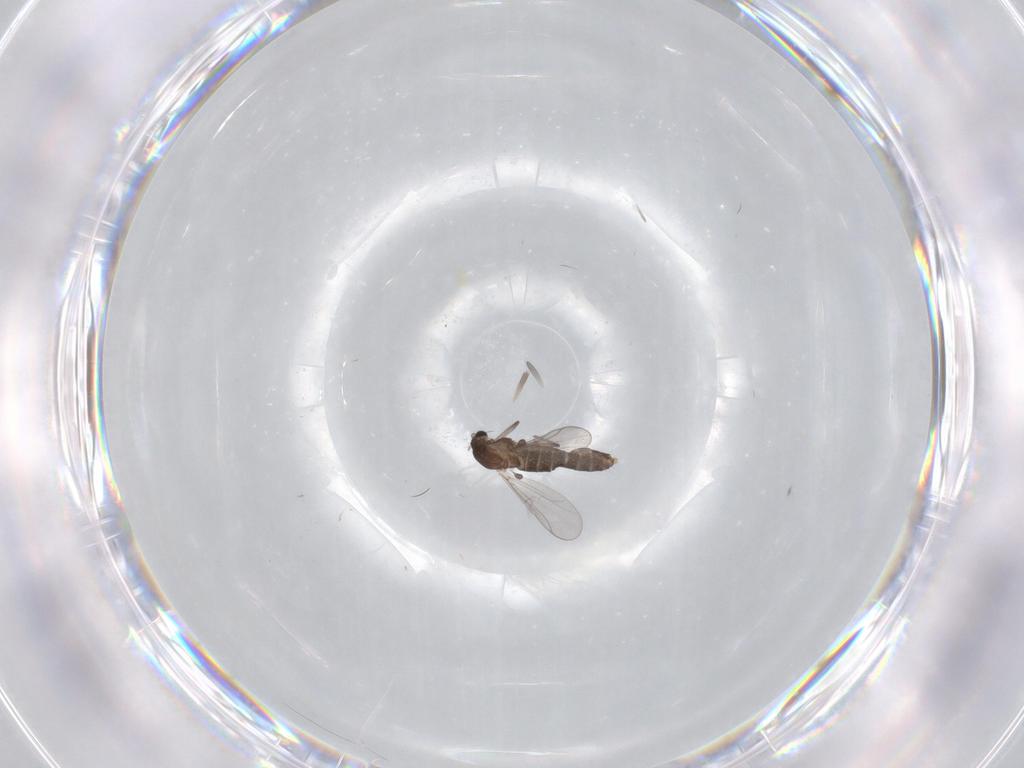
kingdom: Animalia
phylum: Arthropoda
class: Insecta
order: Diptera
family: Chironomidae
